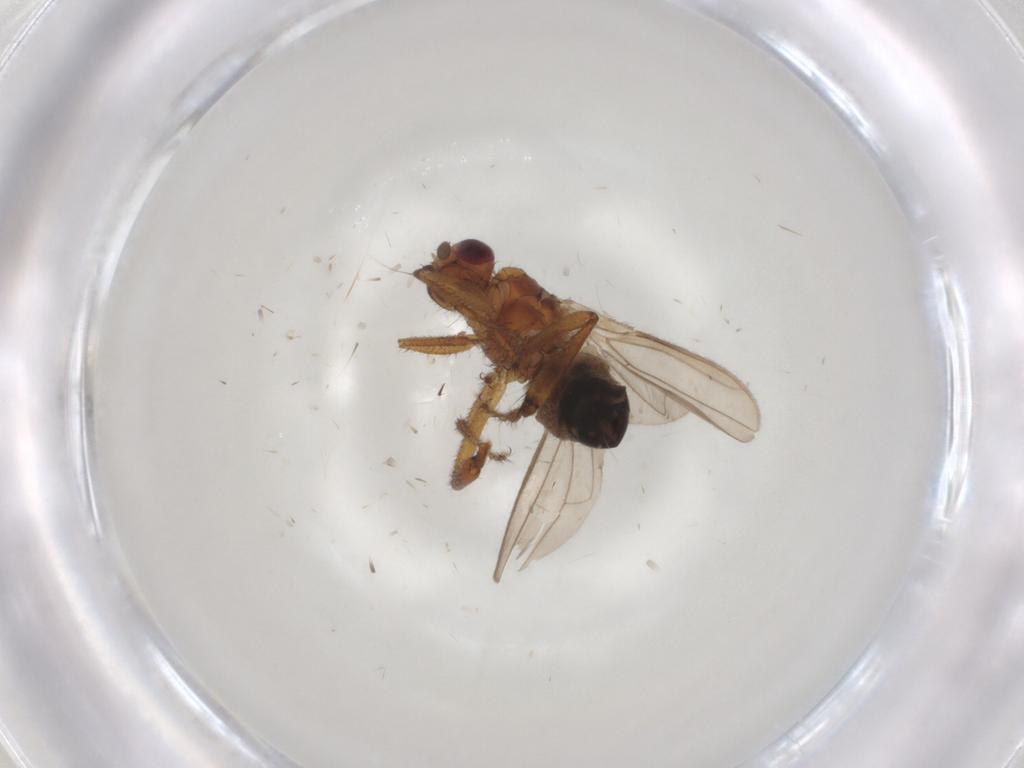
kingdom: Animalia
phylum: Arthropoda
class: Insecta
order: Diptera
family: Sphaeroceridae
